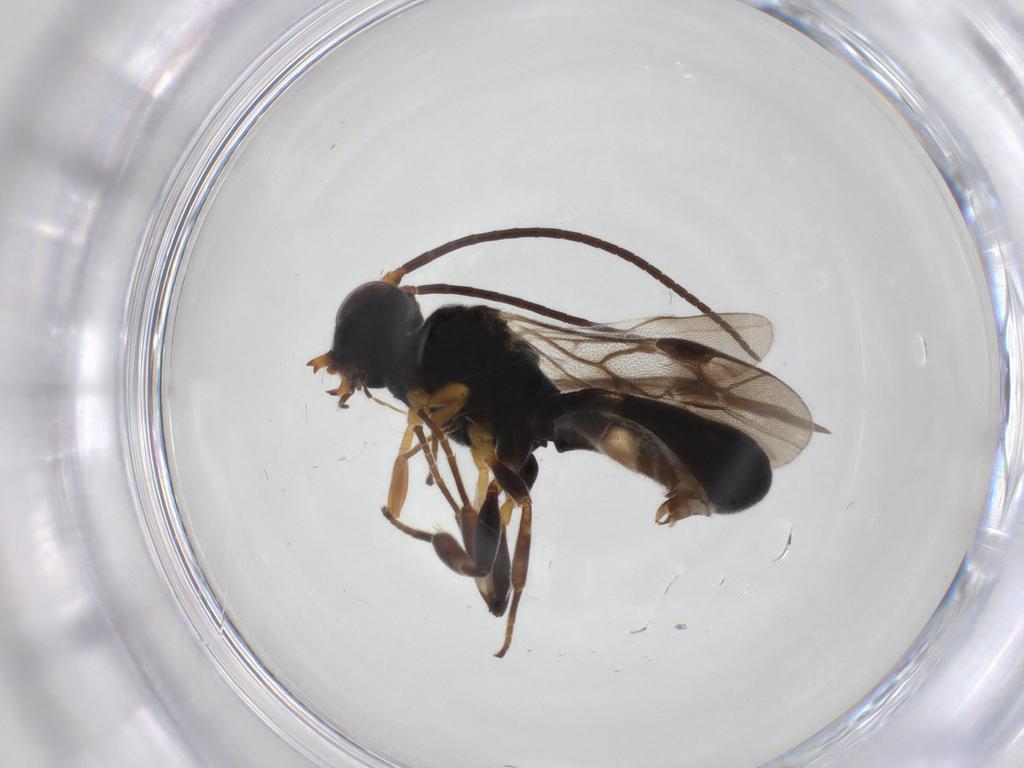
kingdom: Animalia
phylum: Arthropoda
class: Insecta
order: Hymenoptera
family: Braconidae
